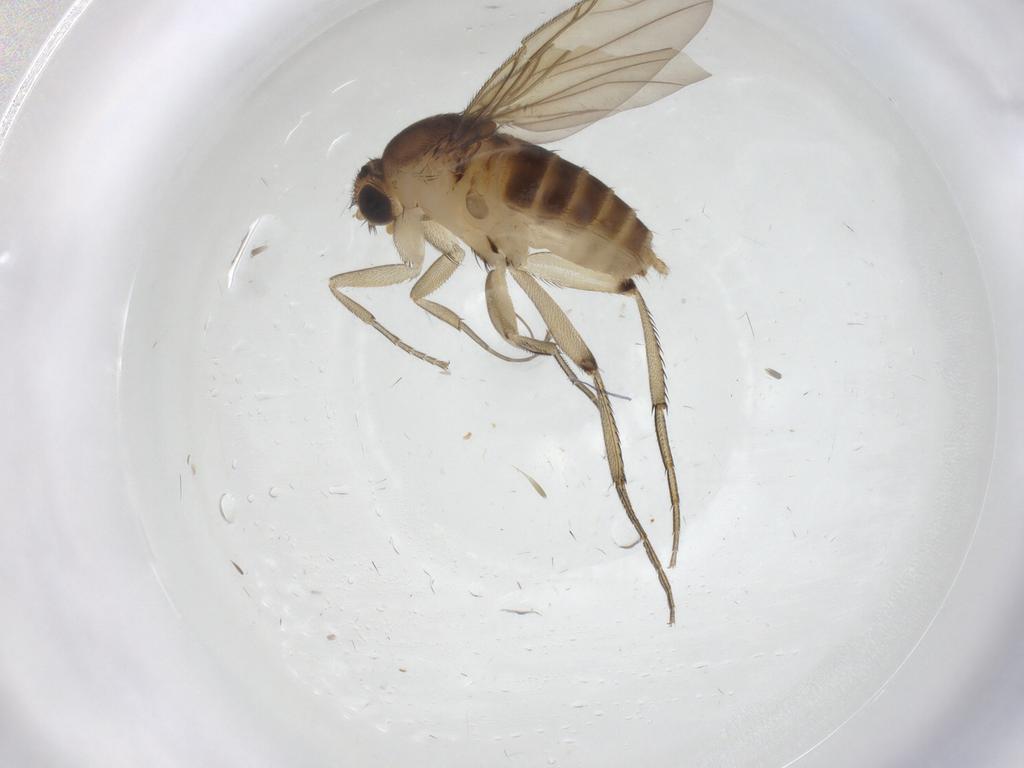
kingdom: Animalia
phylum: Arthropoda
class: Insecta
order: Diptera
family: Phoridae
